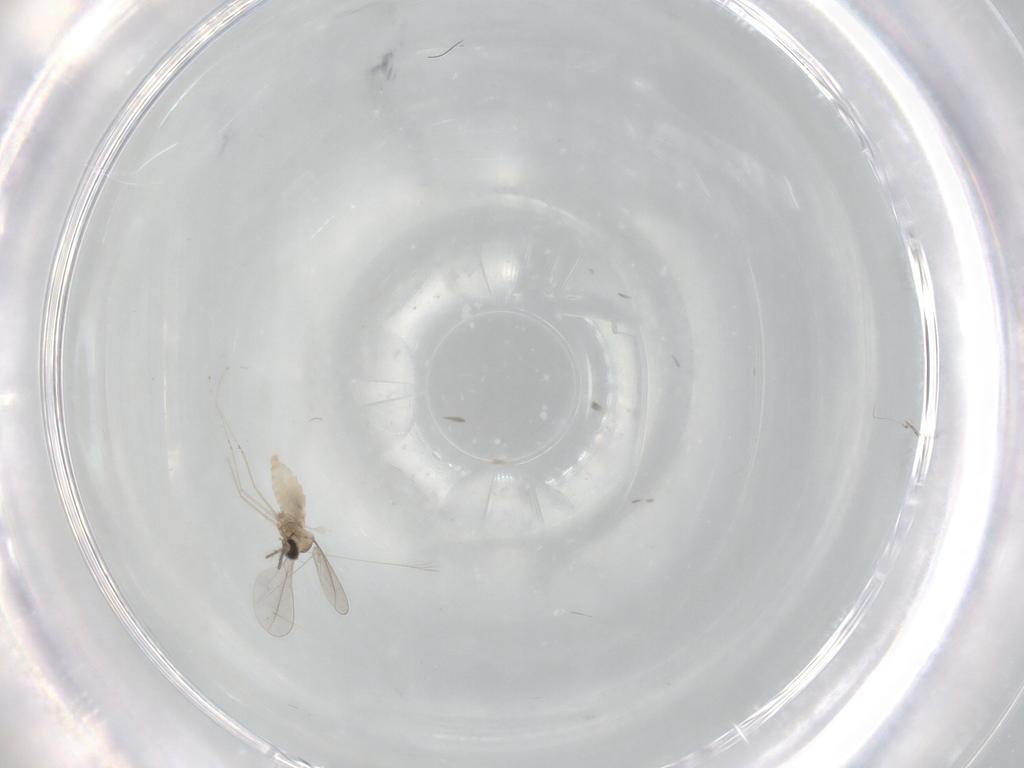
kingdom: Animalia
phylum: Arthropoda
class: Insecta
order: Diptera
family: Cecidomyiidae
